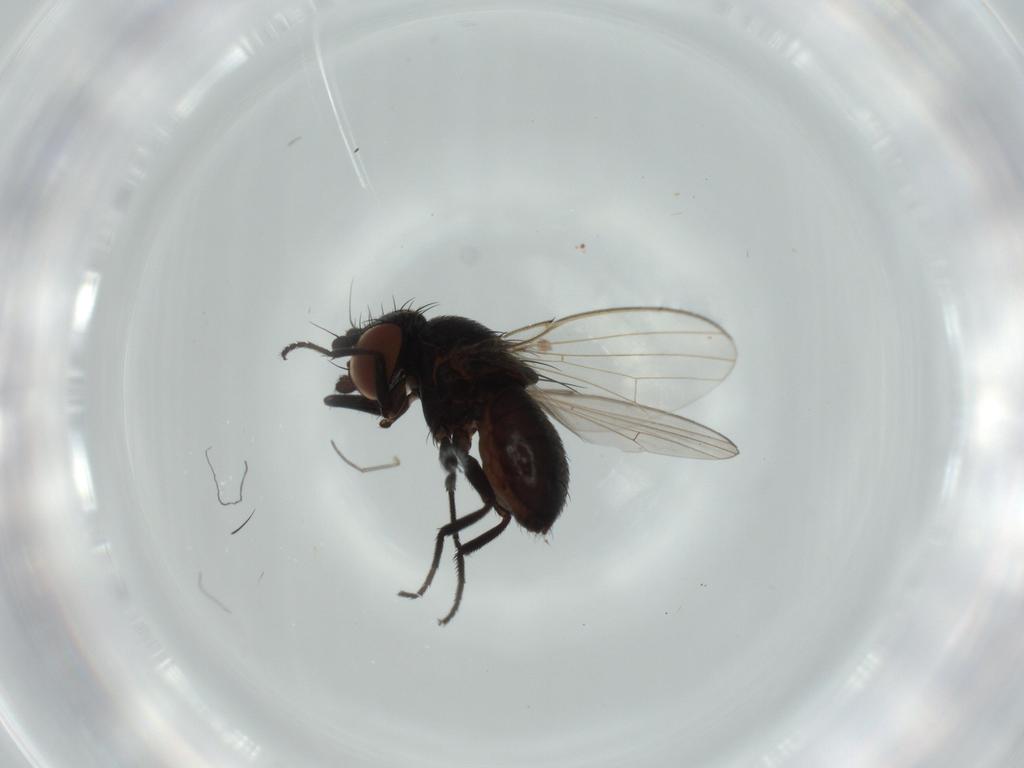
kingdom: Animalia
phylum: Arthropoda
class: Insecta
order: Diptera
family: Milichiidae
